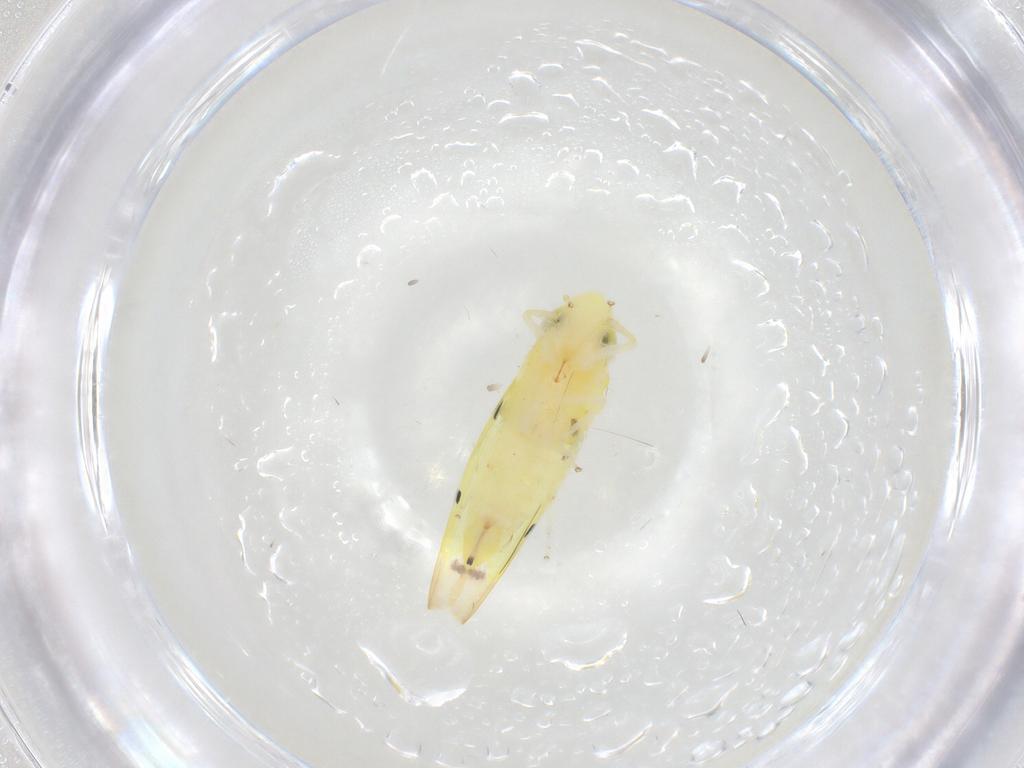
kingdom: Animalia
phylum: Arthropoda
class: Insecta
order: Hemiptera
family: Cicadellidae
